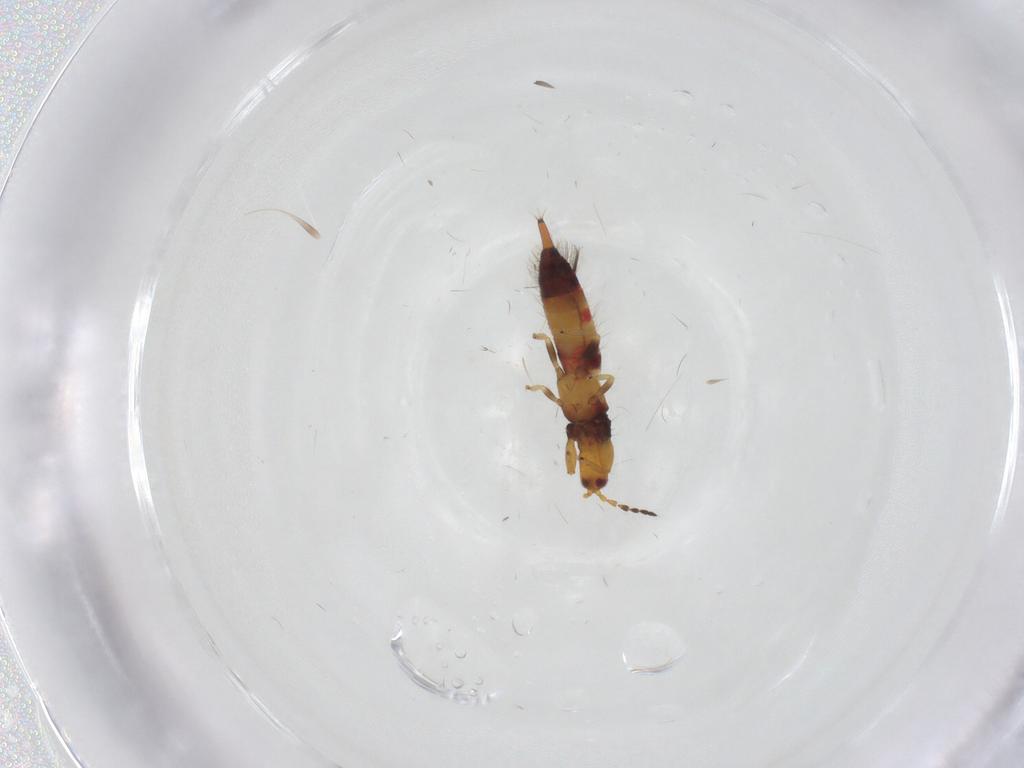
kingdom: Animalia
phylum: Arthropoda
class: Insecta
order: Thysanoptera
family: Phlaeothripidae
